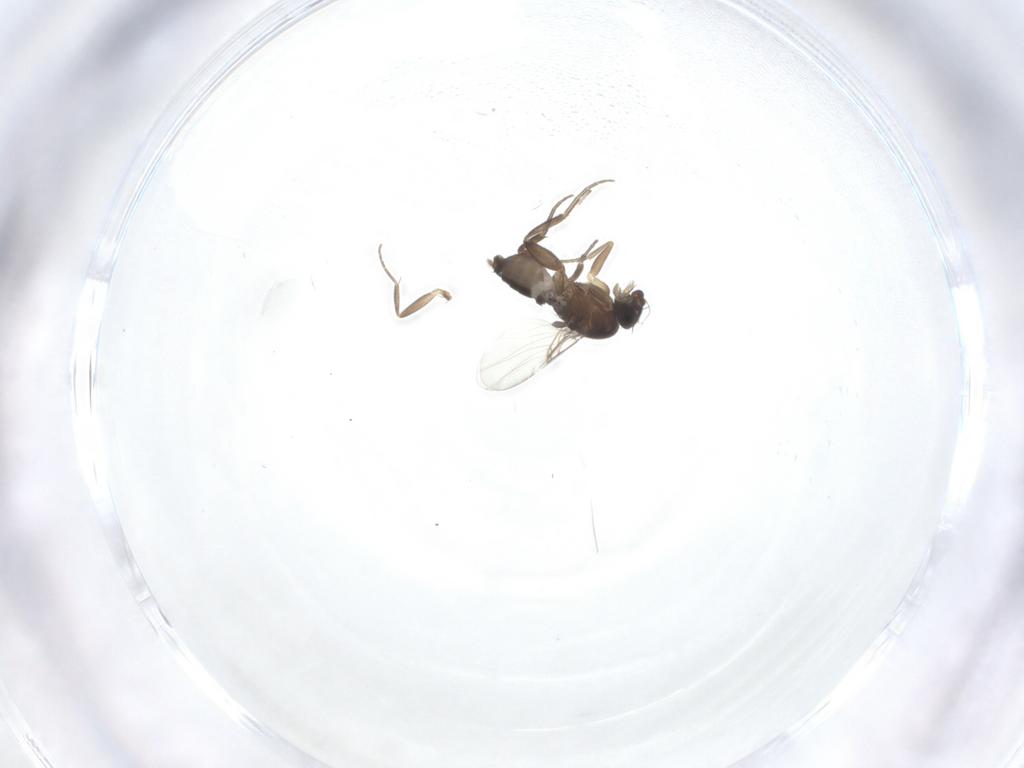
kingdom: Animalia
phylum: Arthropoda
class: Insecta
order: Diptera
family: Phoridae
